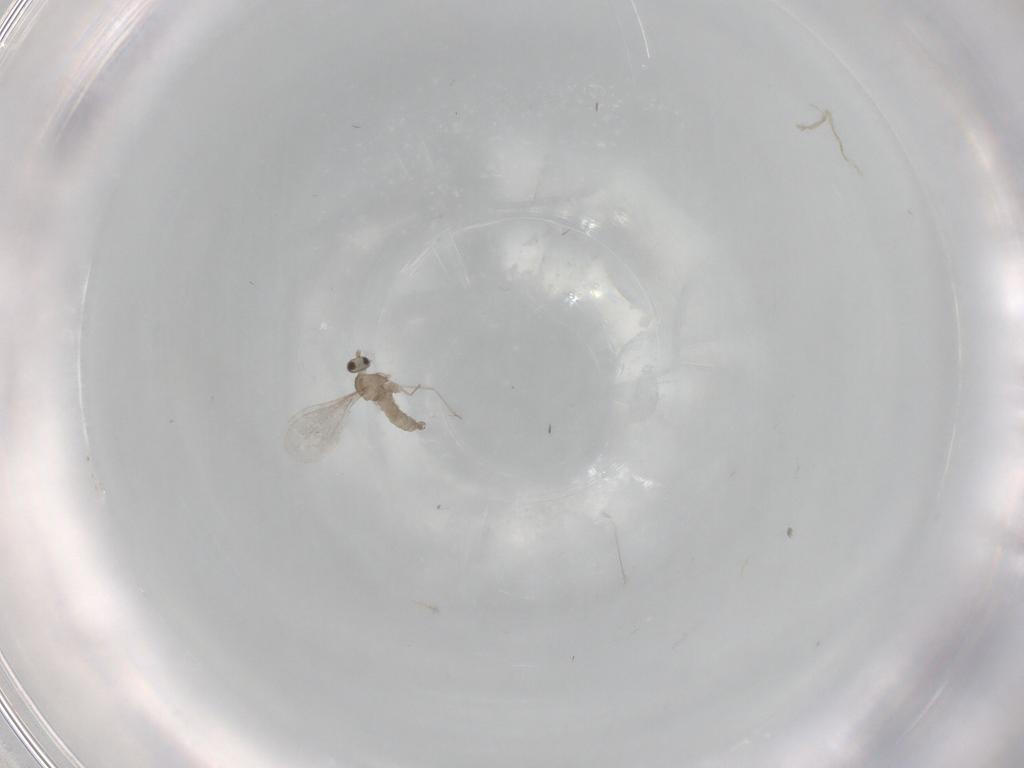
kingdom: Animalia
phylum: Arthropoda
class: Insecta
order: Diptera
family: Cecidomyiidae
